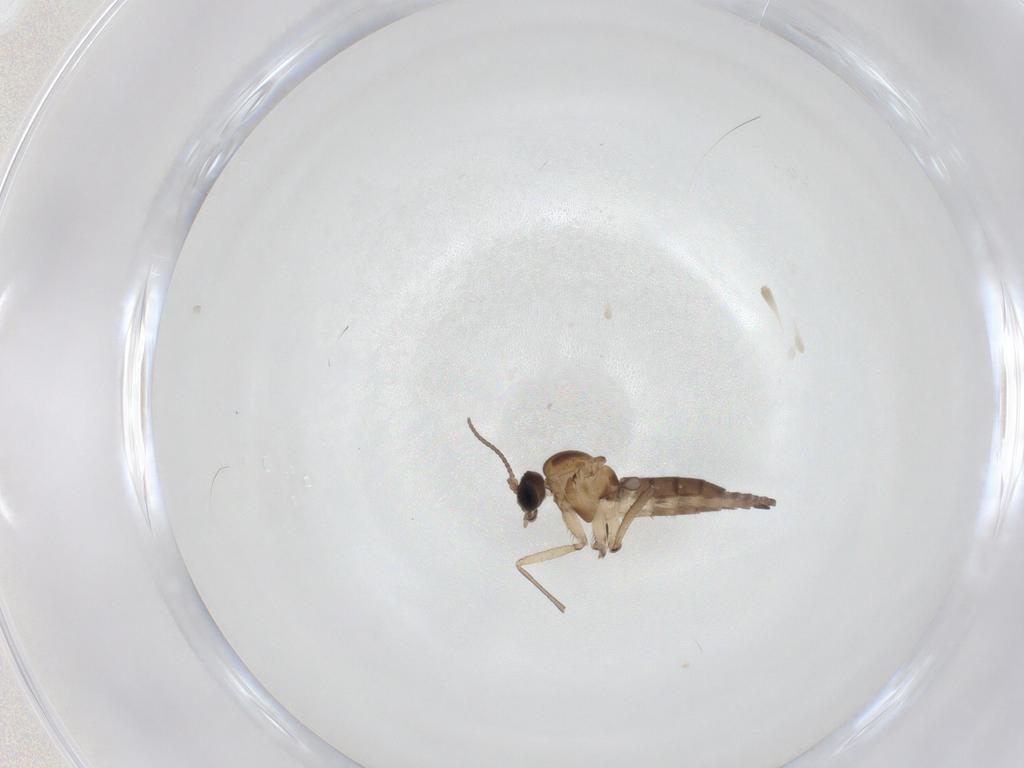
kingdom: Animalia
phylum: Arthropoda
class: Insecta
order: Diptera
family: Sciaridae
